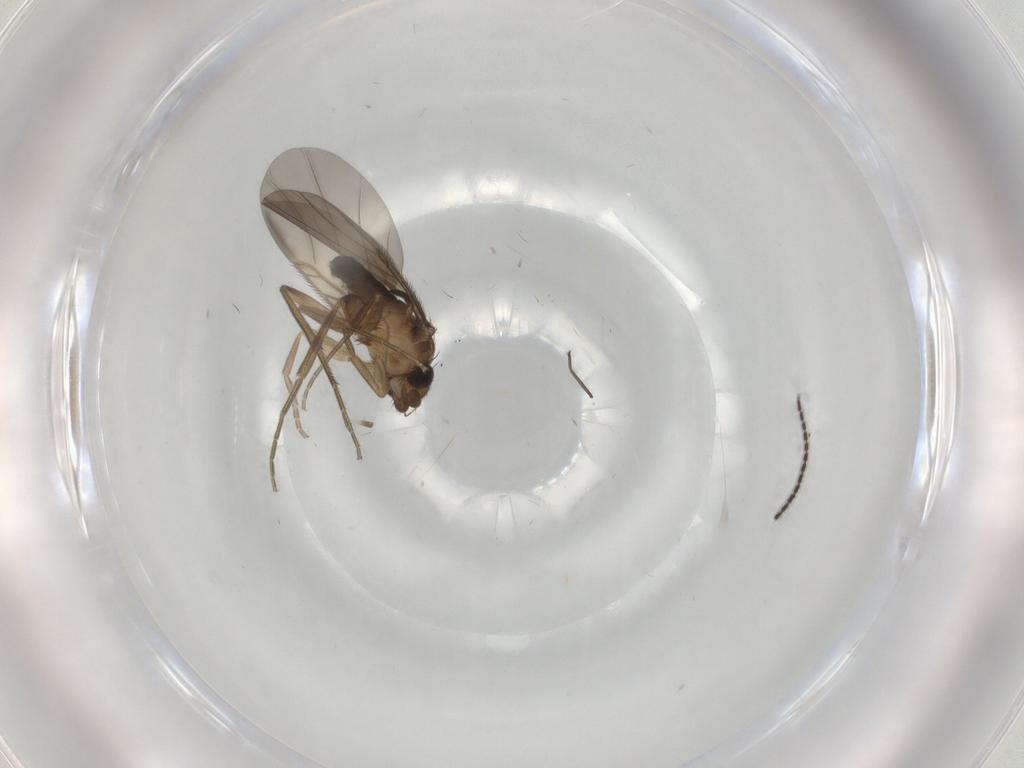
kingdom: Animalia
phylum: Arthropoda
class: Insecta
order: Diptera
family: Phoridae
